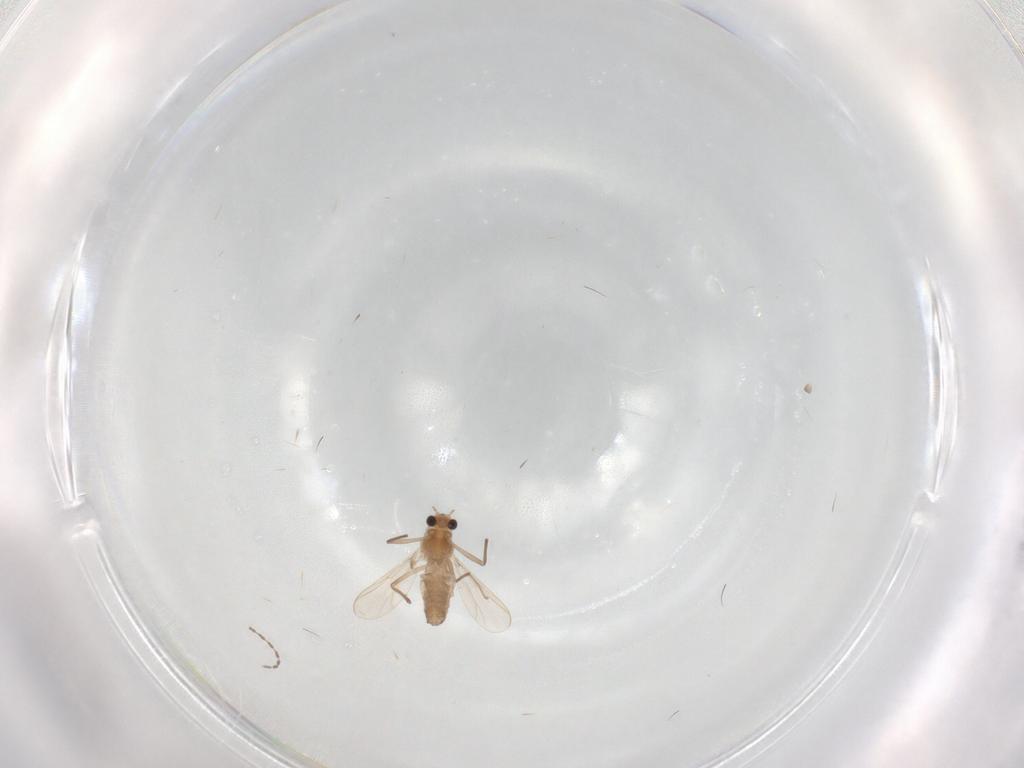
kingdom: Animalia
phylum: Arthropoda
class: Insecta
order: Diptera
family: Chironomidae
